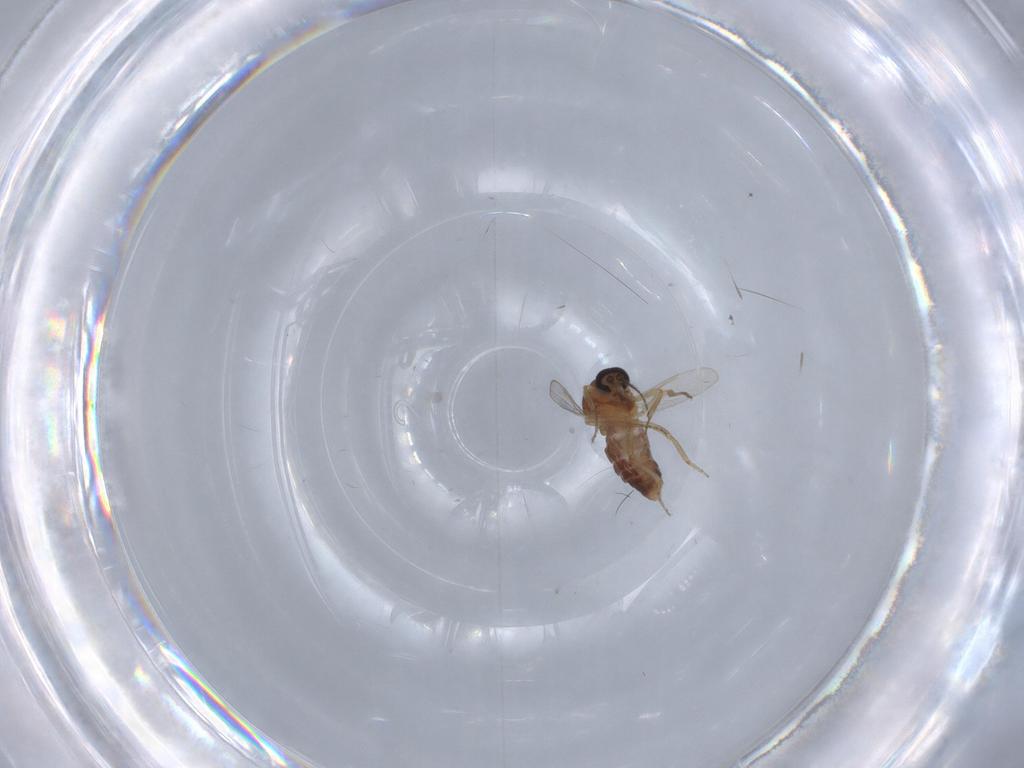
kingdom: Animalia
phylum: Arthropoda
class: Insecta
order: Diptera
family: Ceratopogonidae
